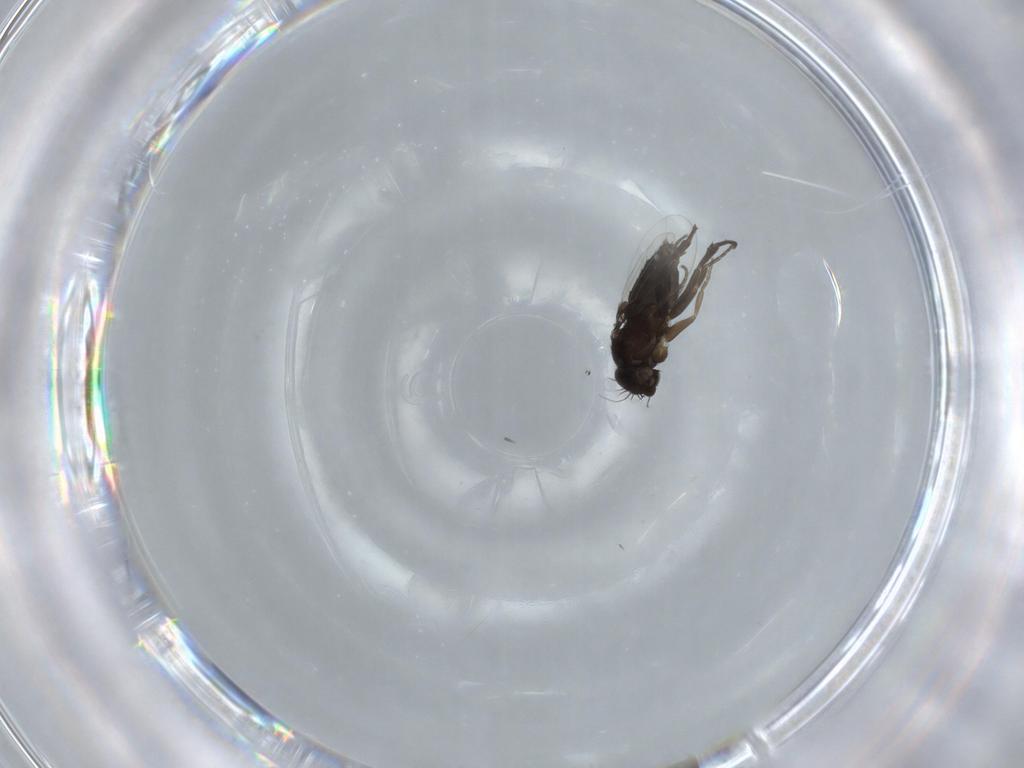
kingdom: Animalia
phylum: Arthropoda
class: Insecta
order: Diptera
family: Phoridae
